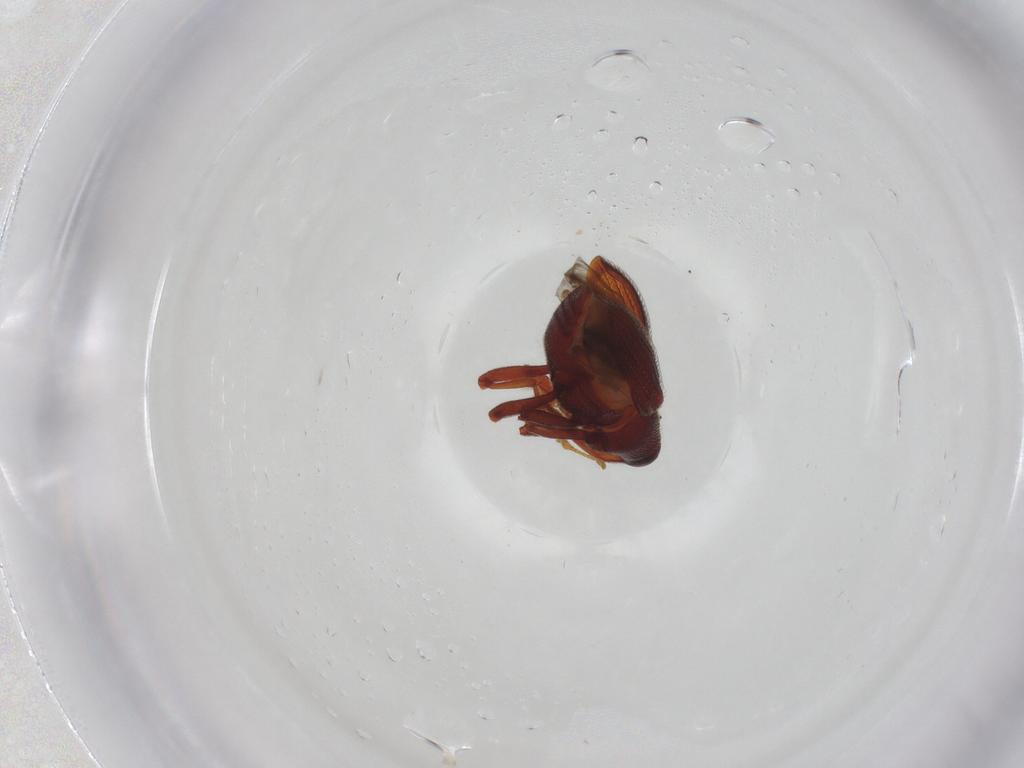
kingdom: Animalia
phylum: Arthropoda
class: Insecta
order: Coleoptera
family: Curculionidae
